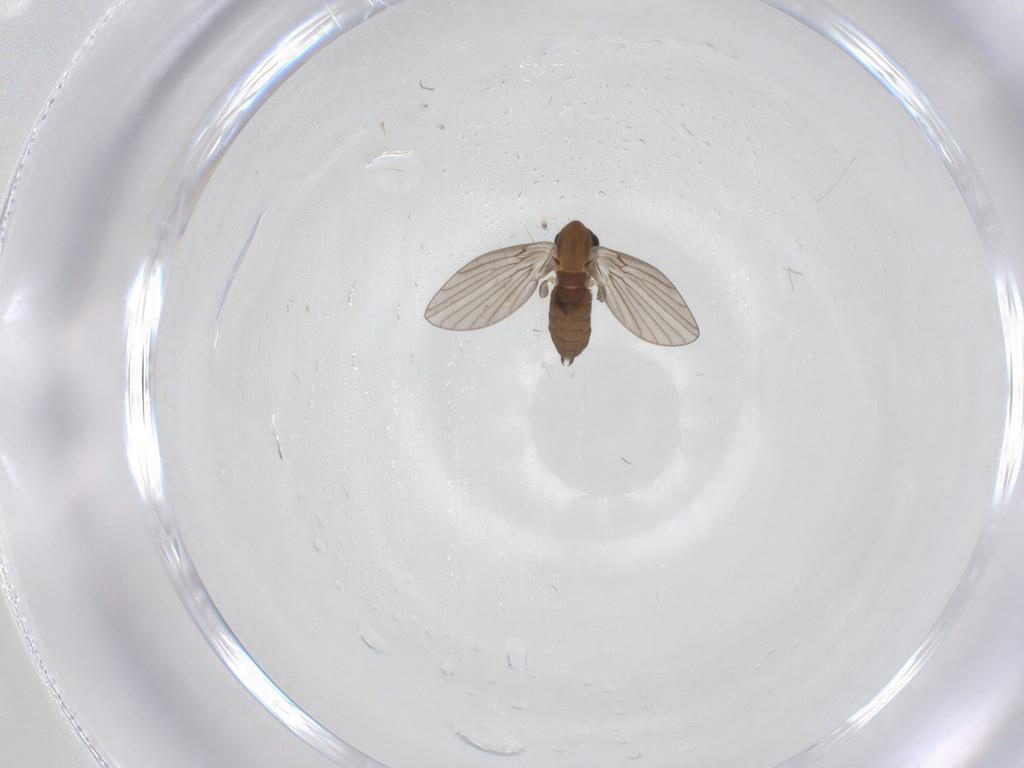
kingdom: Animalia
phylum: Arthropoda
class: Insecta
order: Diptera
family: Psychodidae
